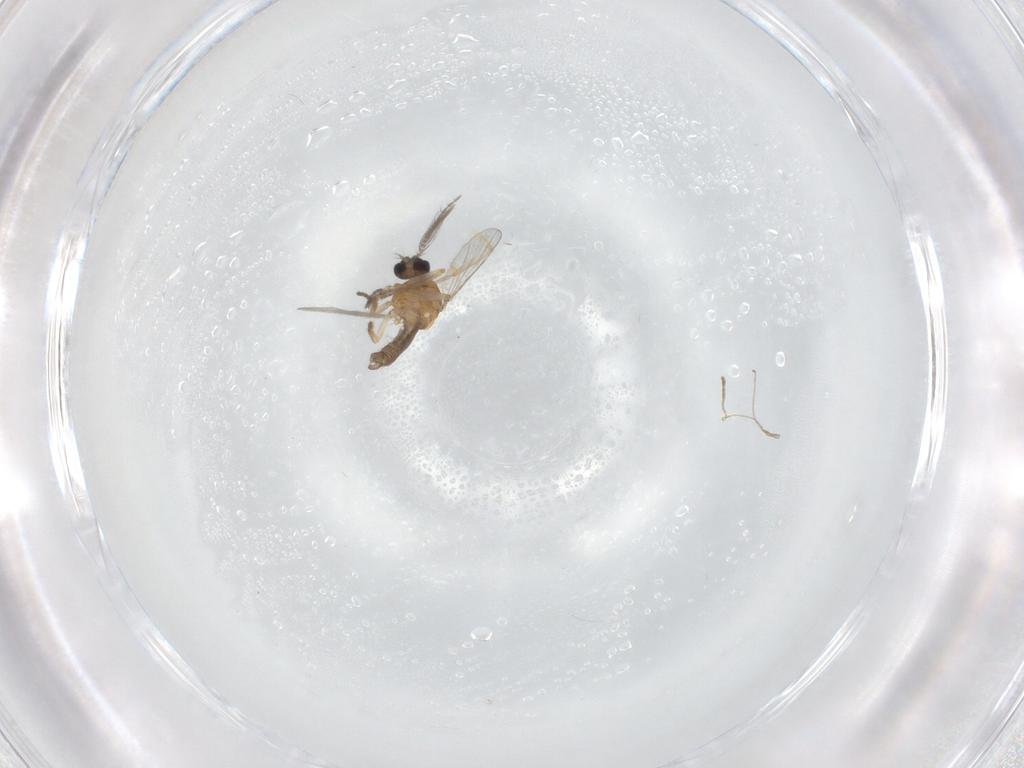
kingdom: Animalia
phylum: Arthropoda
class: Insecta
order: Diptera
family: Ceratopogonidae
